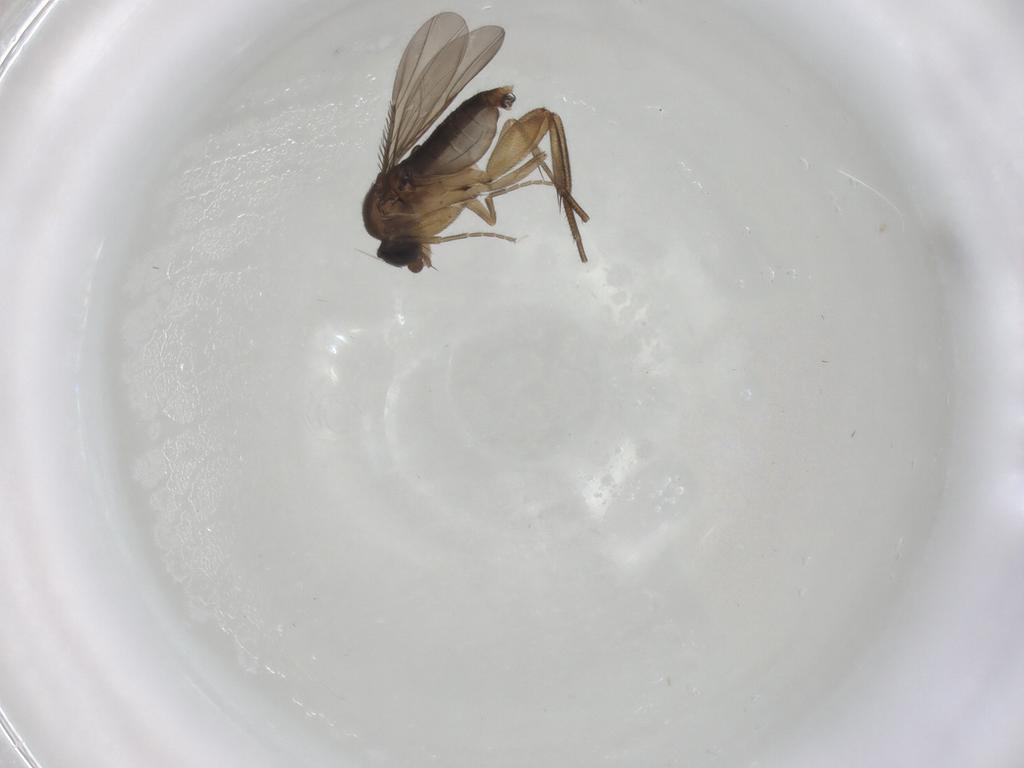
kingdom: Animalia
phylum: Arthropoda
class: Insecta
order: Diptera
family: Phoridae
